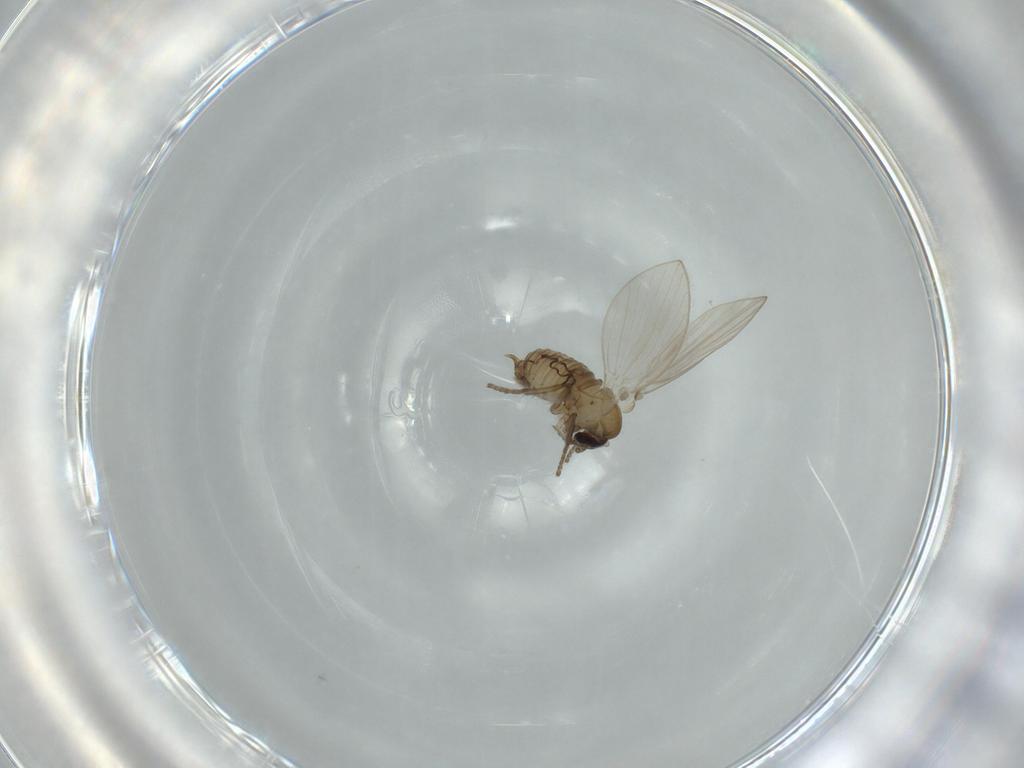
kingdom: Animalia
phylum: Arthropoda
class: Insecta
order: Diptera
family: Psychodidae
